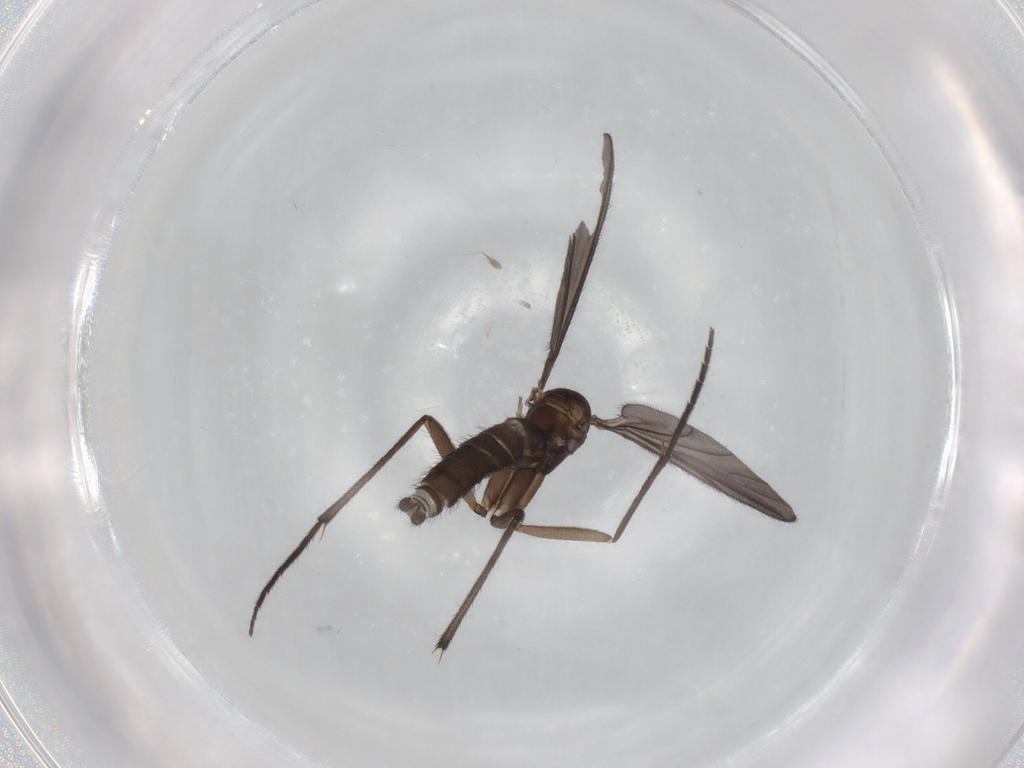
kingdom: Animalia
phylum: Arthropoda
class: Insecta
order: Diptera
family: Sciaridae
